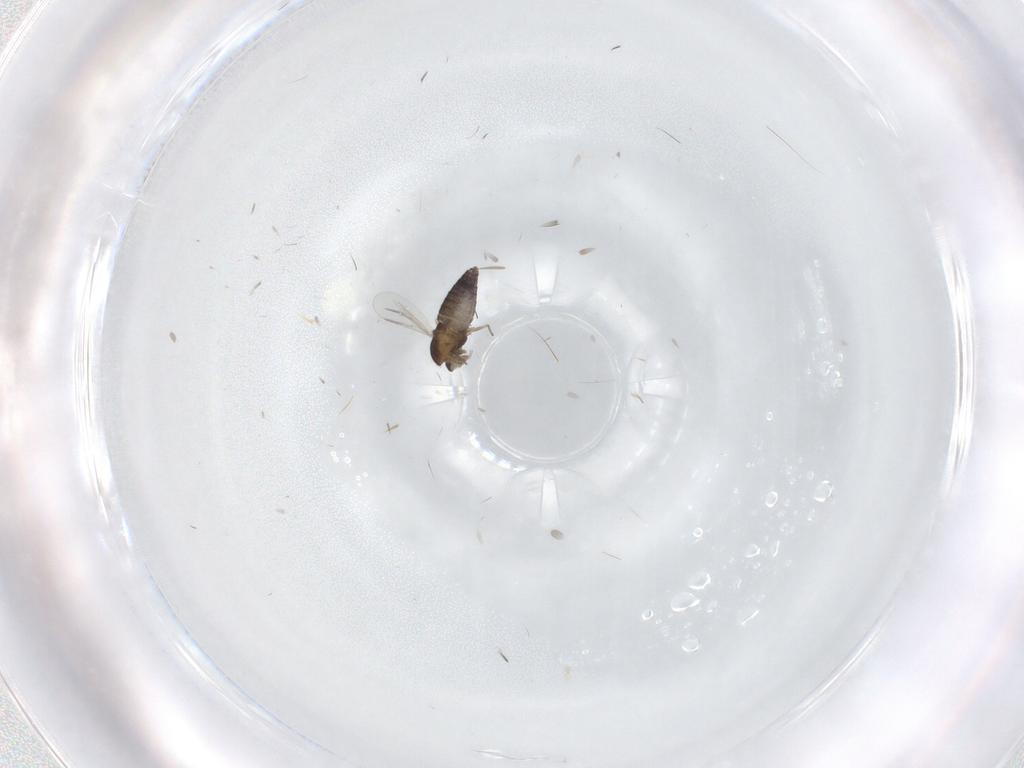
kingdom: Animalia
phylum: Arthropoda
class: Insecta
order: Diptera
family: Chironomidae
